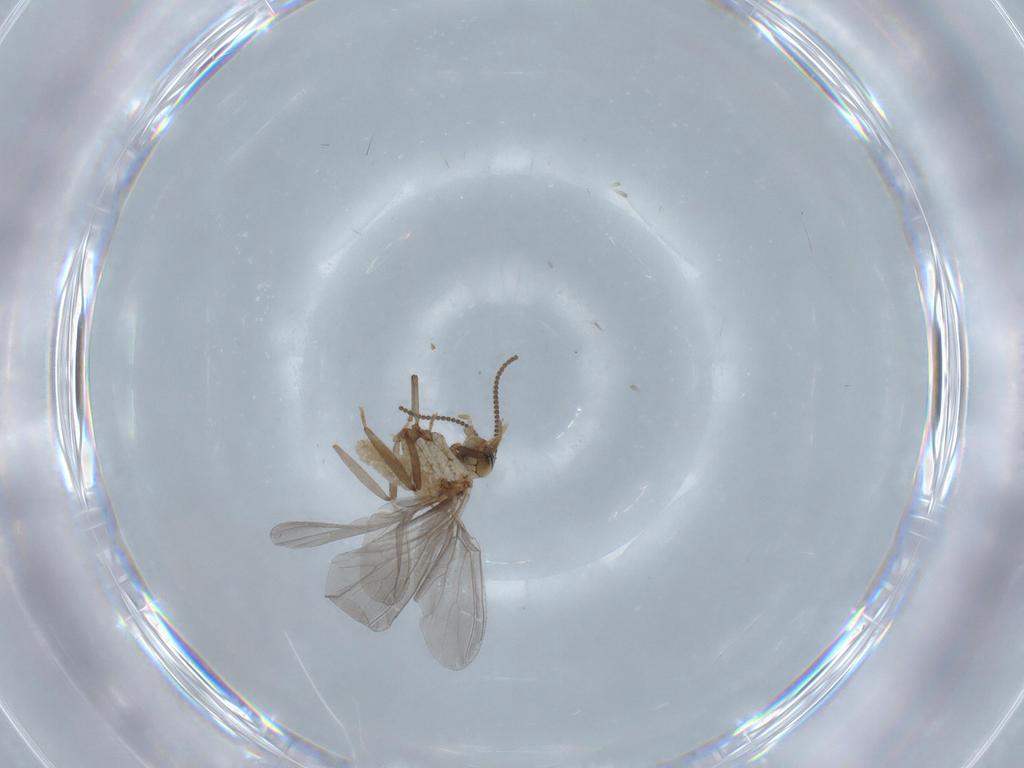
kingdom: Animalia
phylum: Arthropoda
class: Insecta
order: Neuroptera
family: Coniopterygidae
